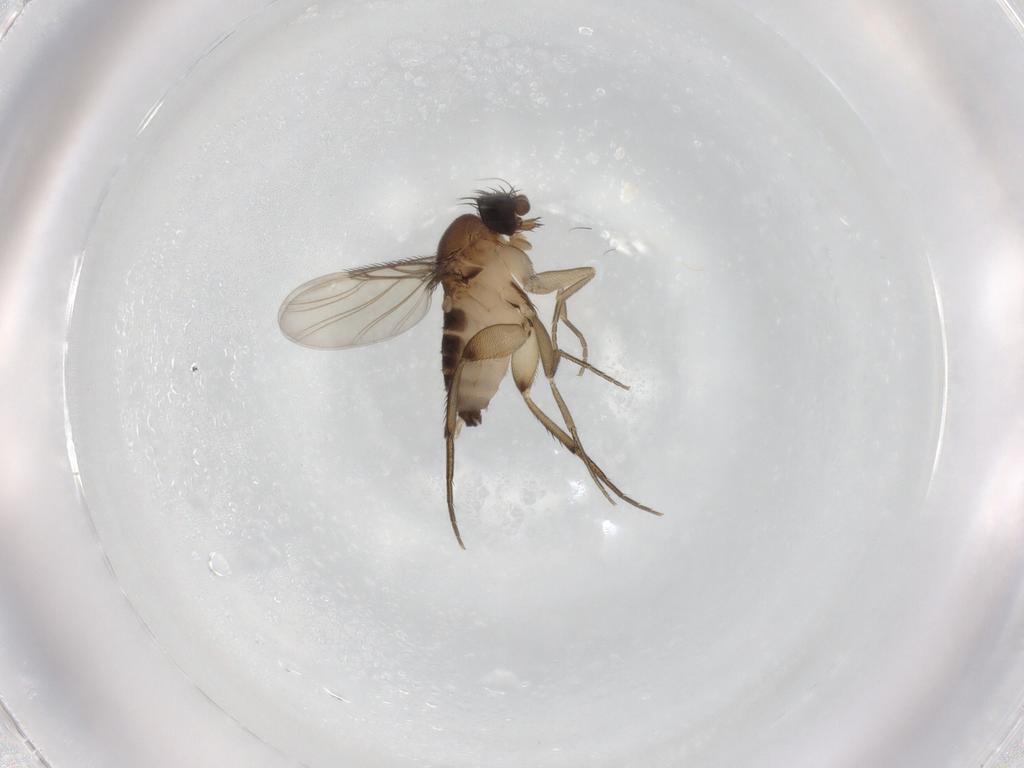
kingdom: Animalia
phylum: Arthropoda
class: Insecta
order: Diptera
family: Phoridae
